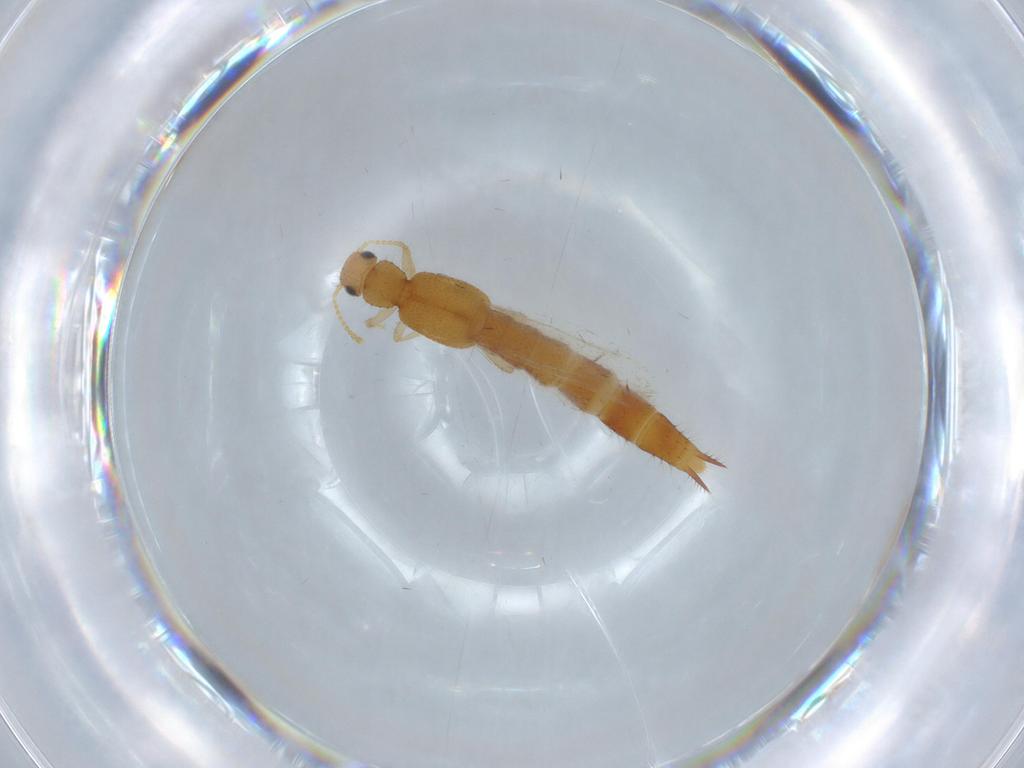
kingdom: Animalia
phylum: Arthropoda
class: Insecta
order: Coleoptera
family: Staphylinidae
